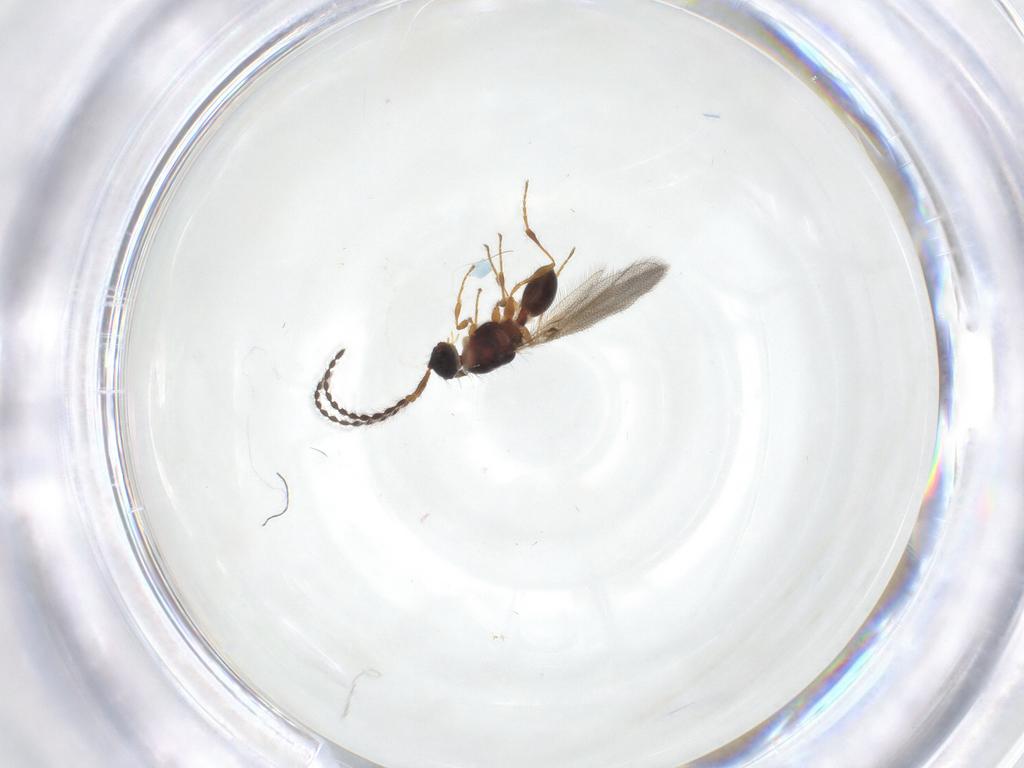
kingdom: Animalia
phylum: Arthropoda
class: Insecta
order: Hymenoptera
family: Diapriidae
